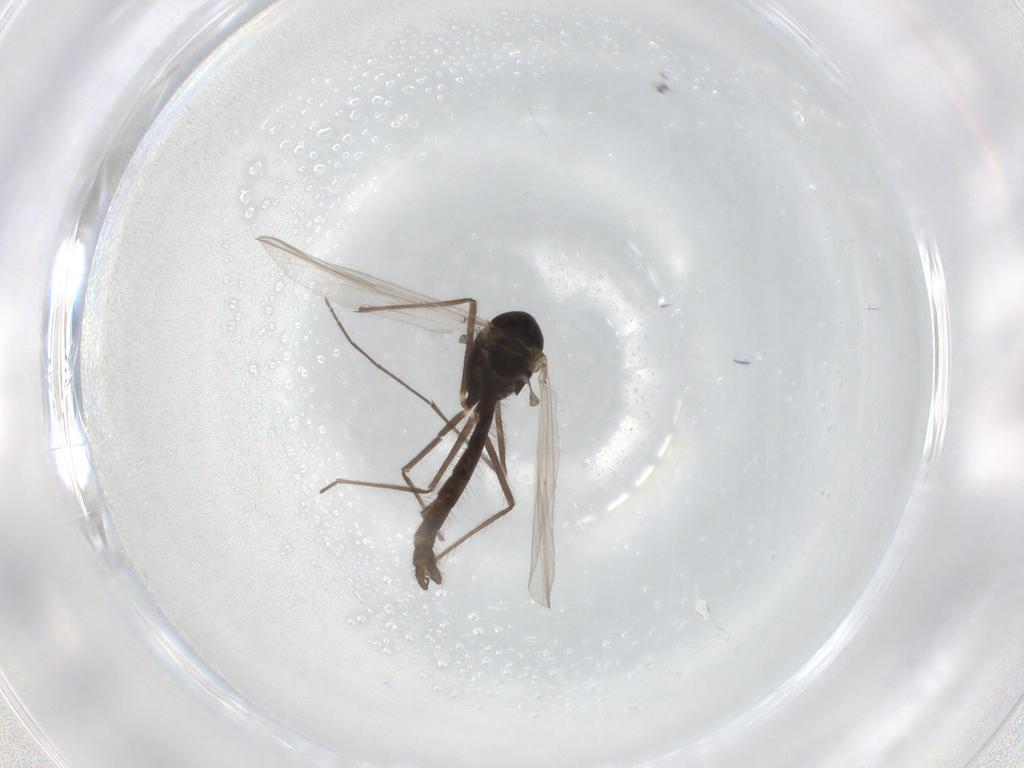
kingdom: Animalia
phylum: Arthropoda
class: Insecta
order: Diptera
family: Chironomidae
